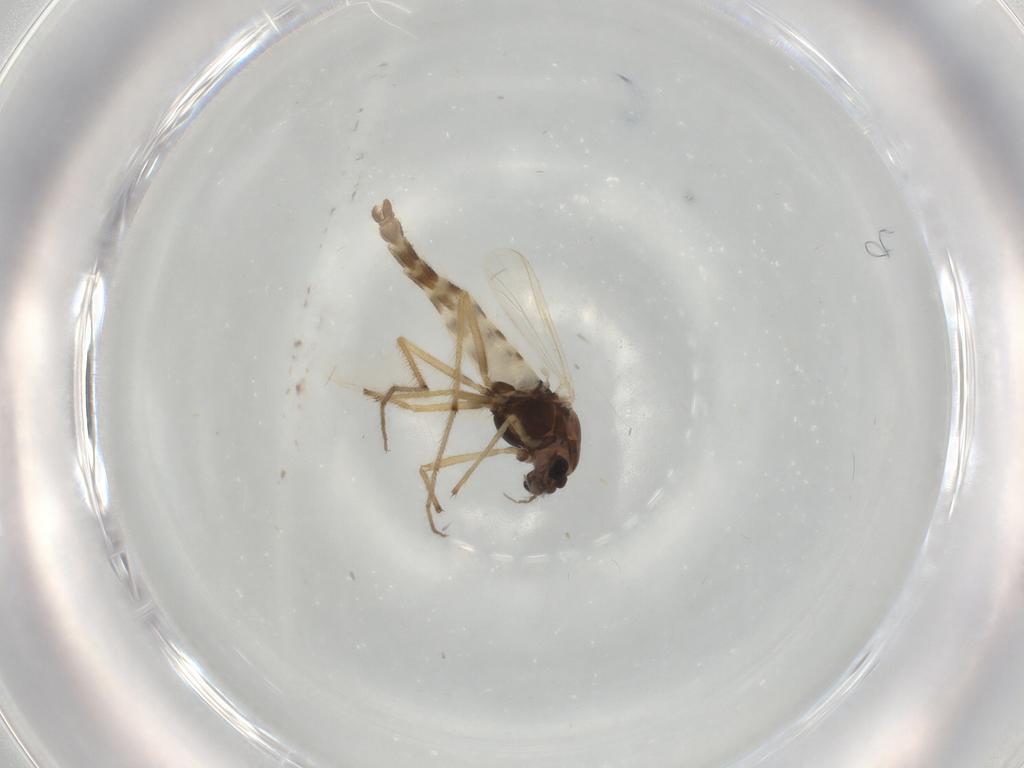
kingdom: Animalia
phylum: Arthropoda
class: Insecta
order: Diptera
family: Chironomidae
